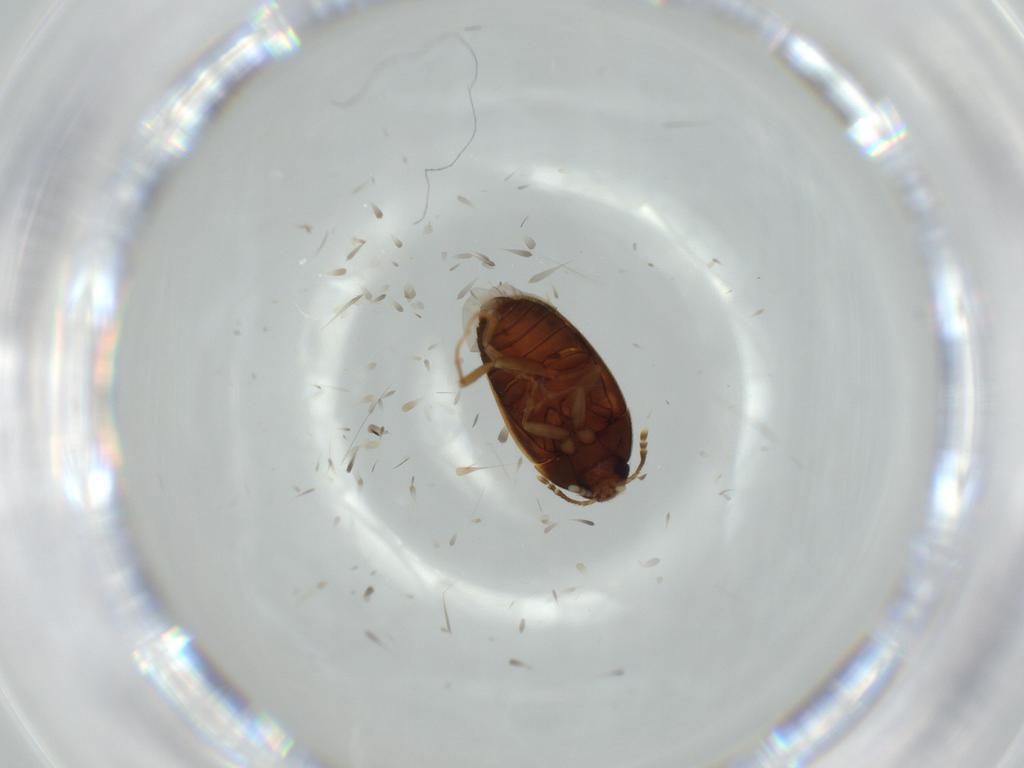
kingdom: Animalia
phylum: Arthropoda
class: Insecta
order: Coleoptera
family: Mycetophagidae
